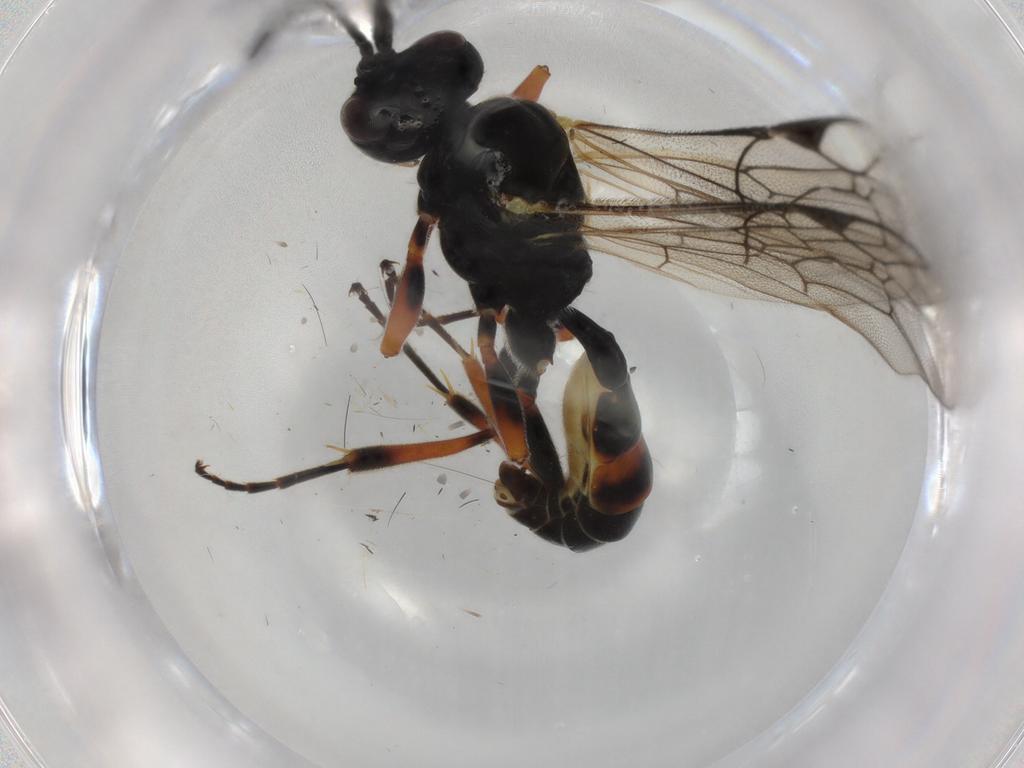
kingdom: Animalia
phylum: Arthropoda
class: Insecta
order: Hymenoptera
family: Ichneumonidae
